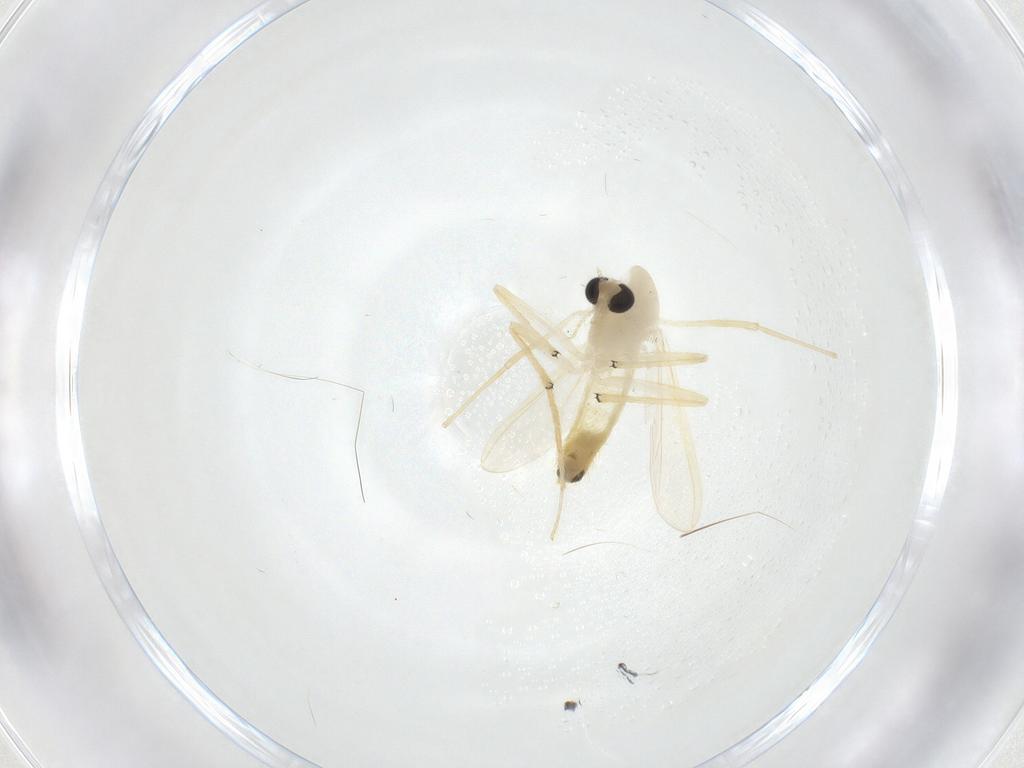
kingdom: Animalia
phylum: Arthropoda
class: Insecta
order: Diptera
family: Chironomidae
